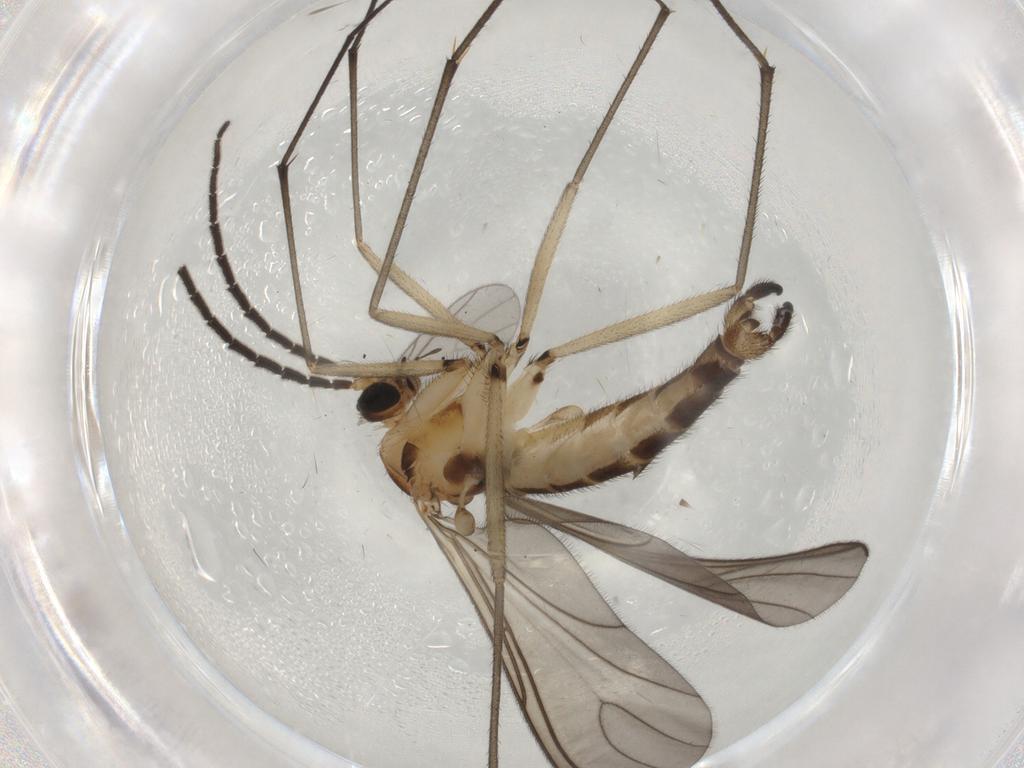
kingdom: Animalia
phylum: Arthropoda
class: Insecta
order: Diptera
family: Sciaridae
